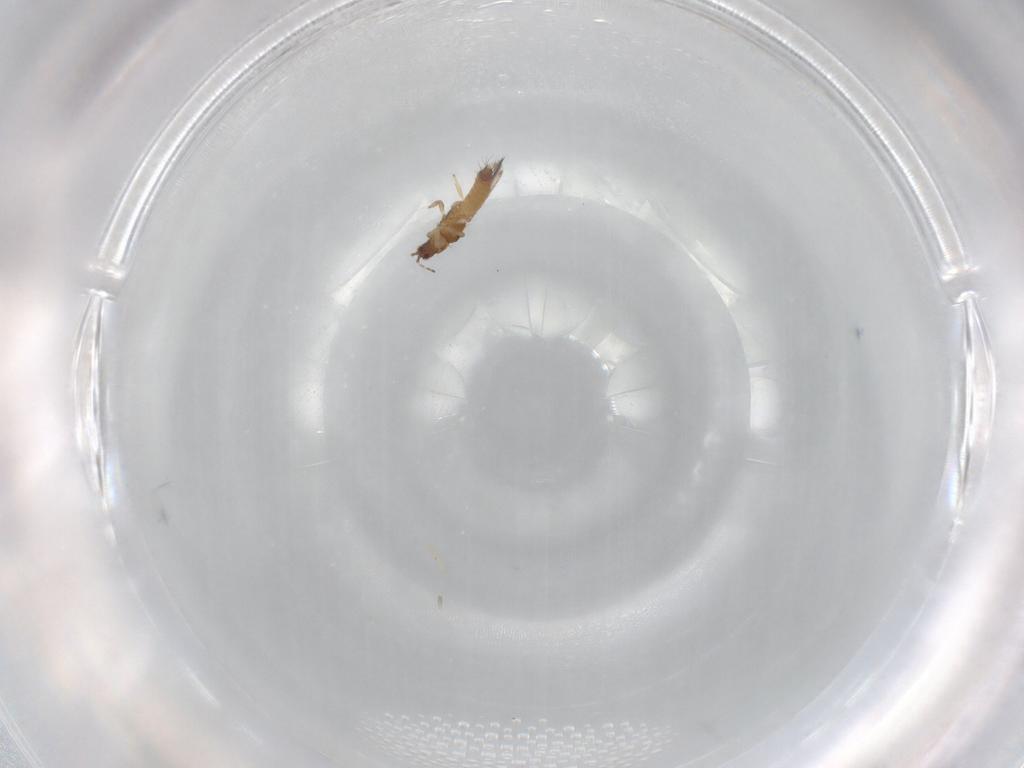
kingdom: Animalia
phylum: Arthropoda
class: Insecta
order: Thysanoptera
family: Thripidae
